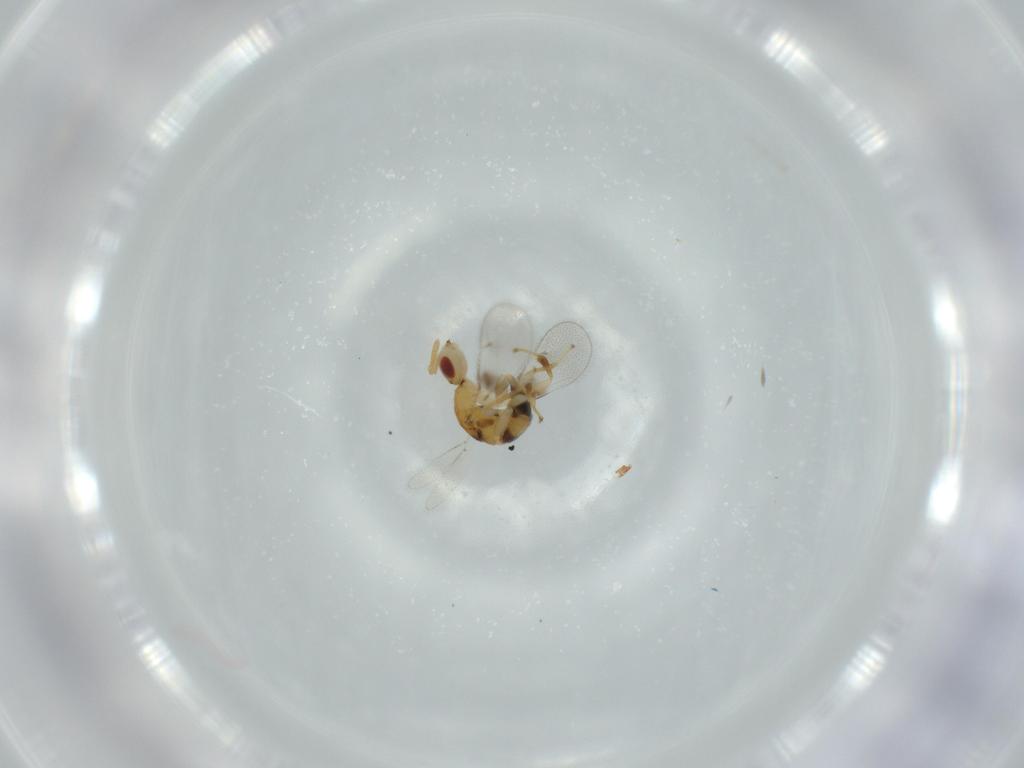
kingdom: Animalia
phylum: Arthropoda
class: Insecta
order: Hymenoptera
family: Torymidae
